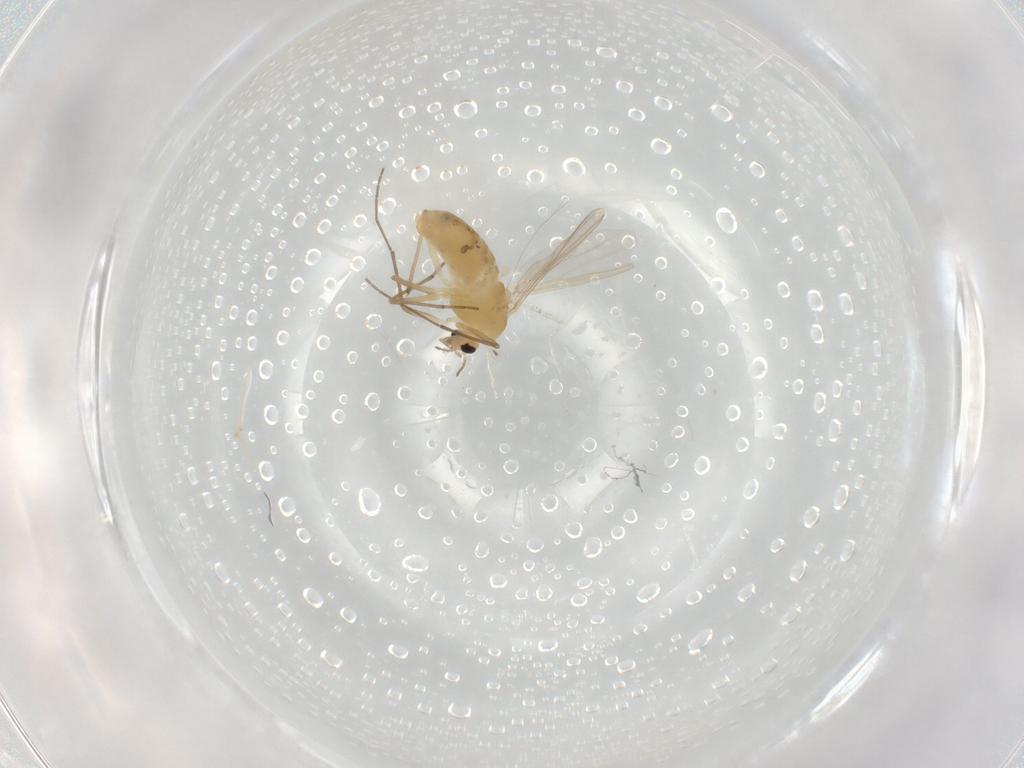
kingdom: Animalia
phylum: Arthropoda
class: Insecta
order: Diptera
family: Chironomidae
